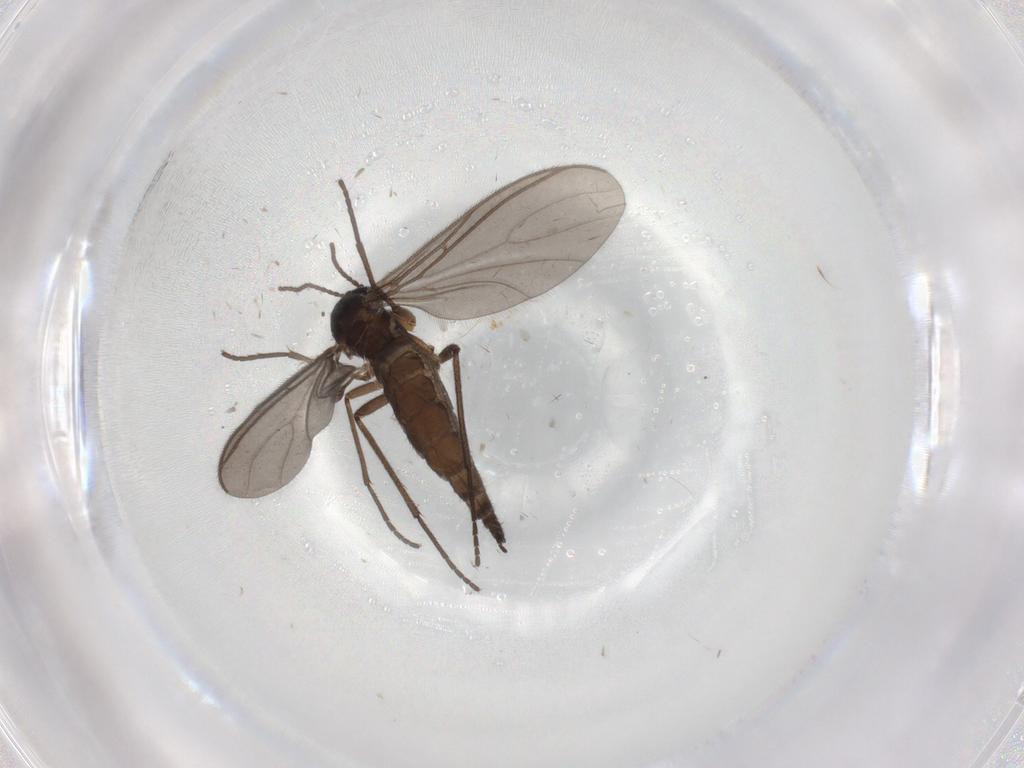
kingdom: Animalia
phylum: Arthropoda
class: Insecta
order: Diptera
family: Sciaridae
